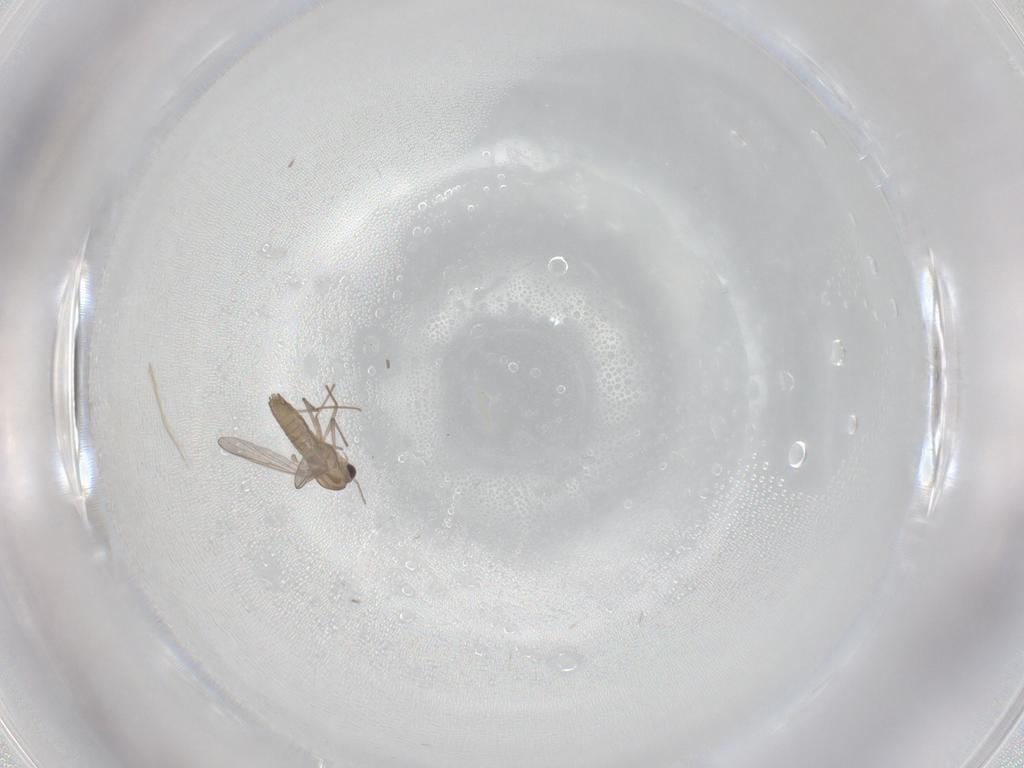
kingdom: Animalia
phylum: Arthropoda
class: Insecta
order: Diptera
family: Chironomidae
